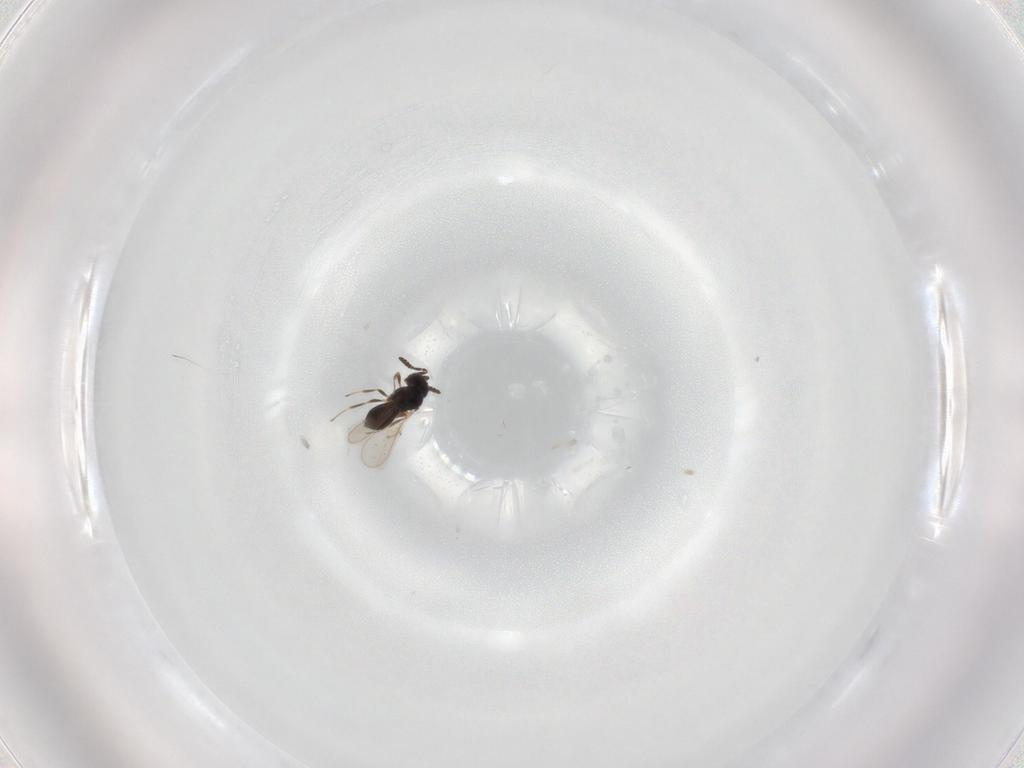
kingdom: Animalia
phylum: Arthropoda
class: Insecta
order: Hymenoptera
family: Scelionidae
